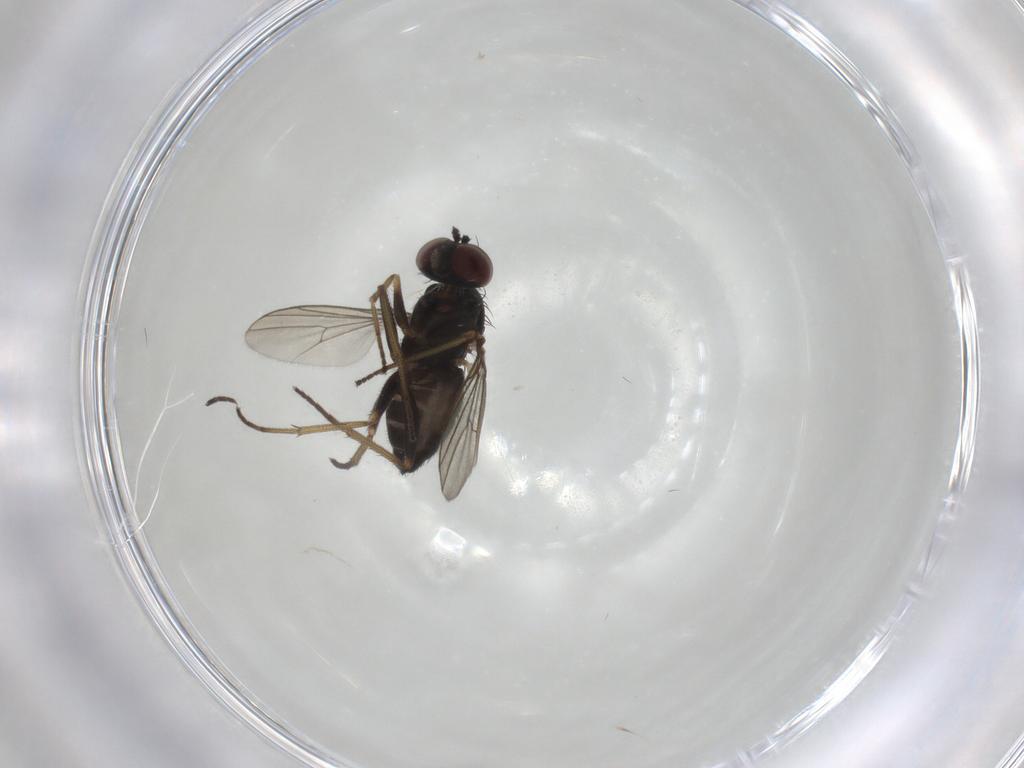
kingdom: Animalia
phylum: Arthropoda
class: Insecta
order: Diptera
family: Dolichopodidae
